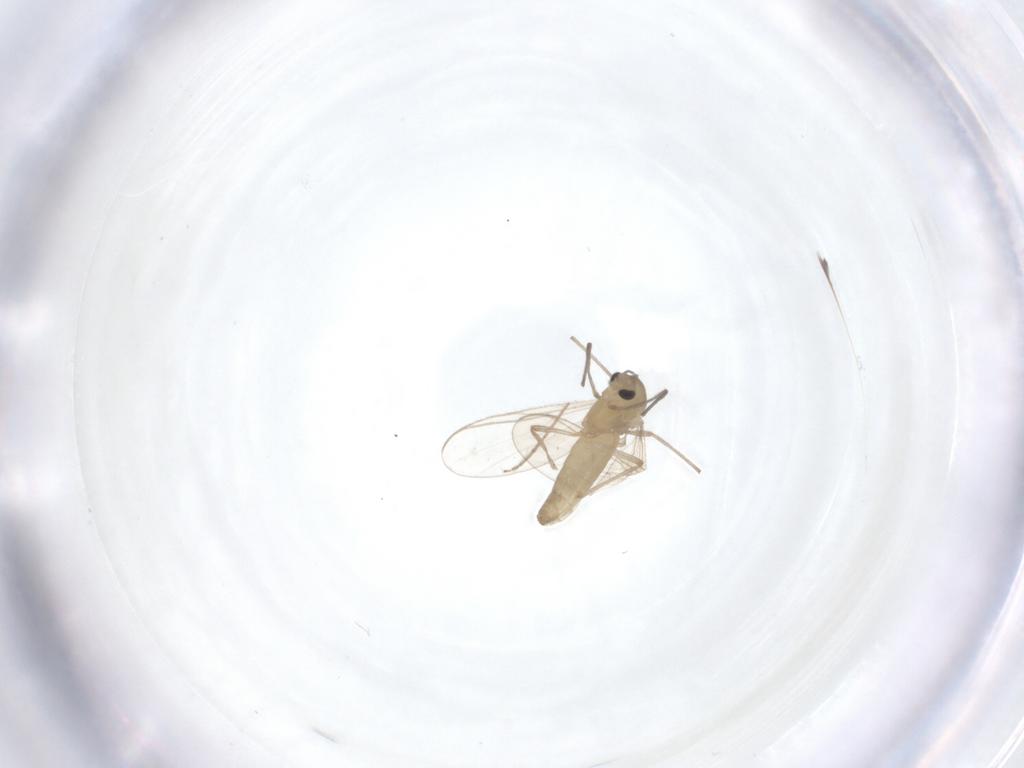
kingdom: Animalia
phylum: Arthropoda
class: Insecta
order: Diptera
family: Chironomidae
